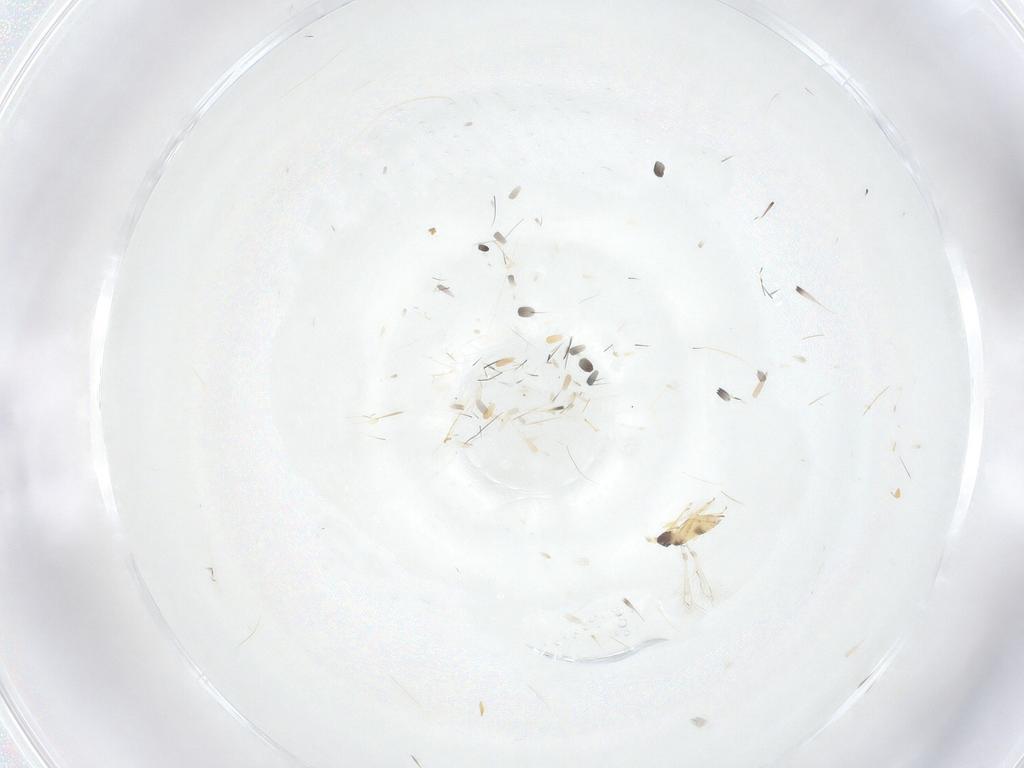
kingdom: Animalia
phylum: Arthropoda
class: Insecta
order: Hymenoptera
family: Mymaridae
